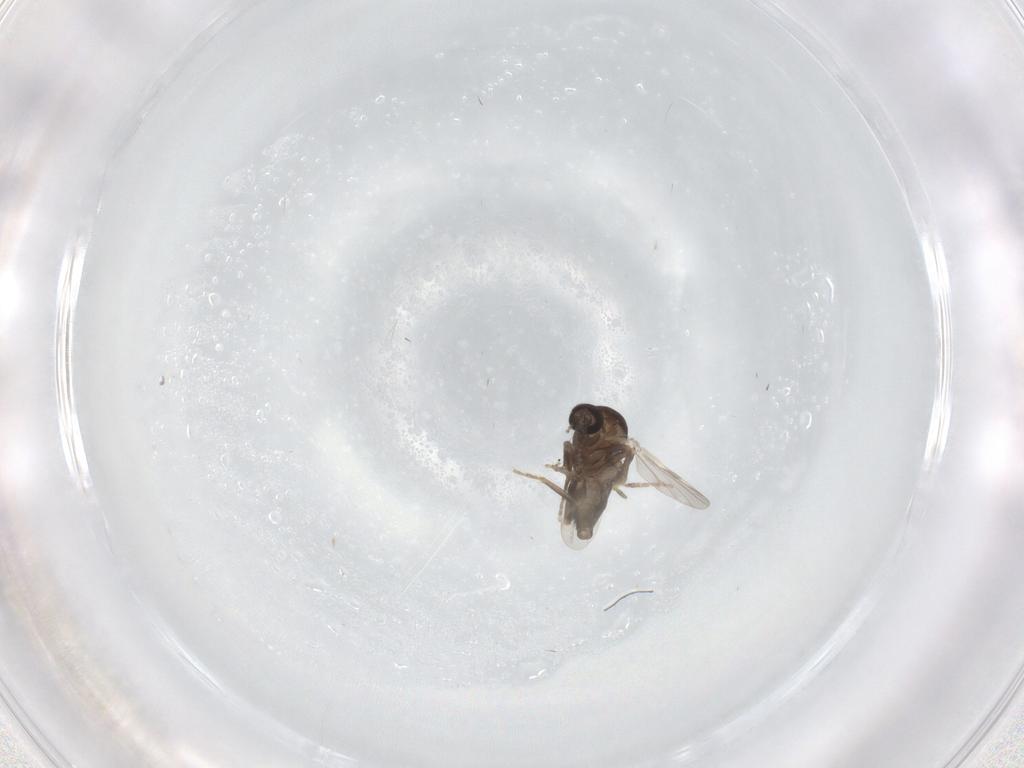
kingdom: Animalia
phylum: Arthropoda
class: Insecta
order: Diptera
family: Ceratopogonidae
